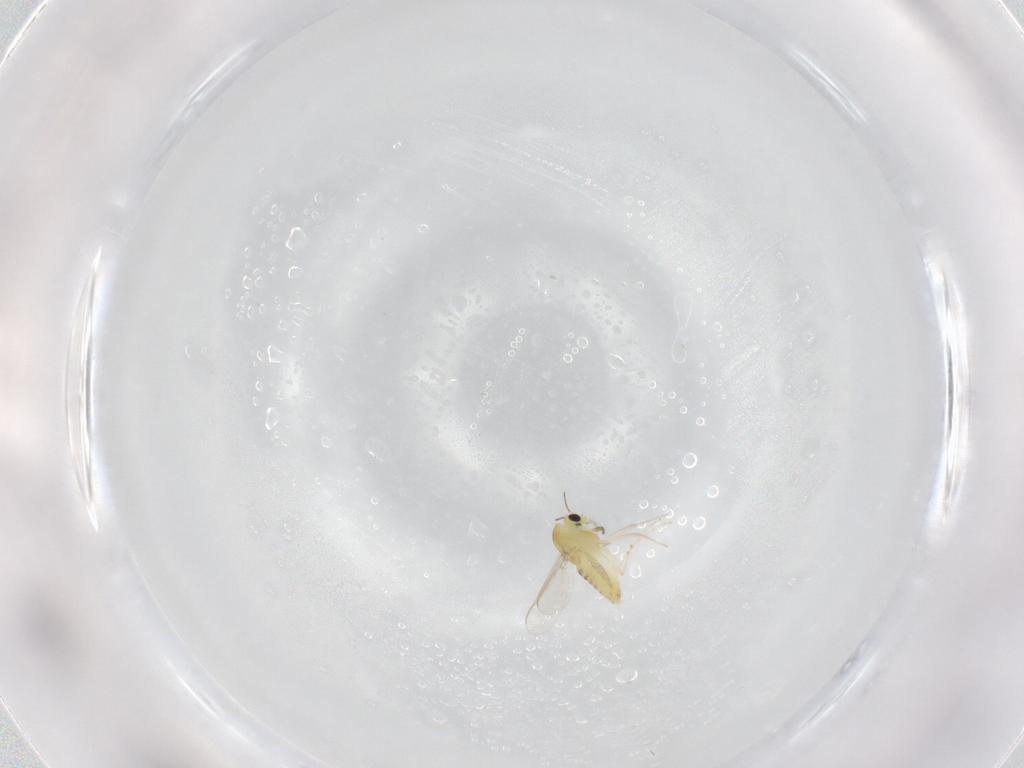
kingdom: Animalia
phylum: Arthropoda
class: Insecta
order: Diptera
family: Chironomidae
